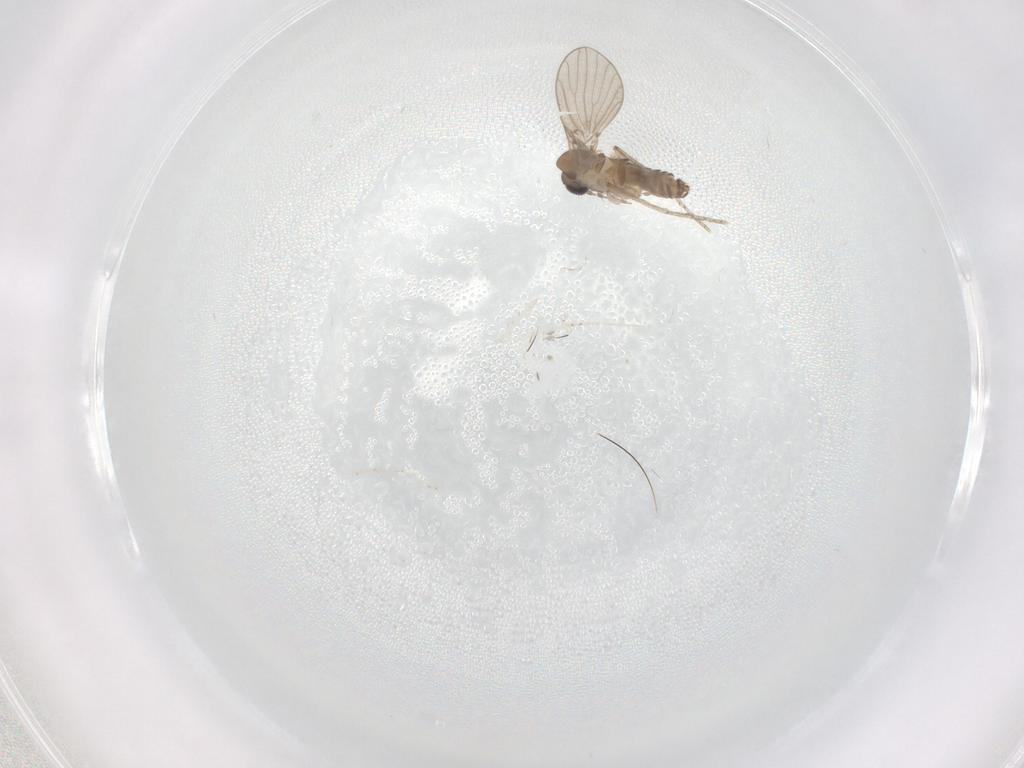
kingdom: Animalia
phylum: Arthropoda
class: Insecta
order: Diptera
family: Psychodidae
